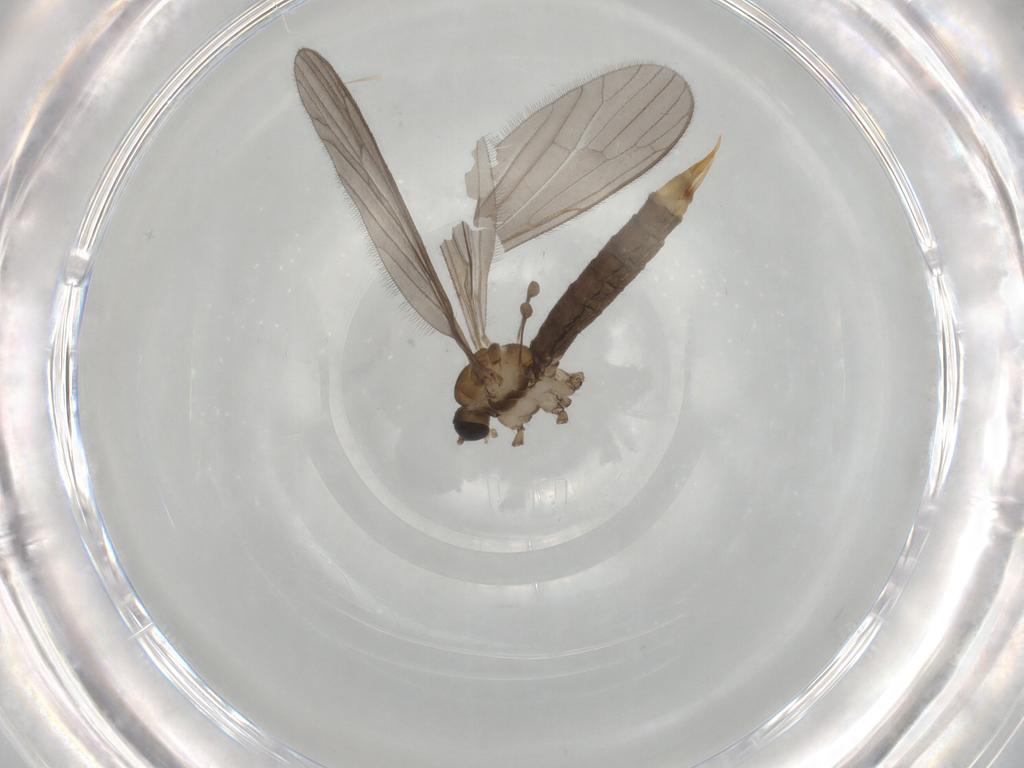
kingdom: Animalia
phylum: Arthropoda
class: Insecta
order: Diptera
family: Limoniidae
